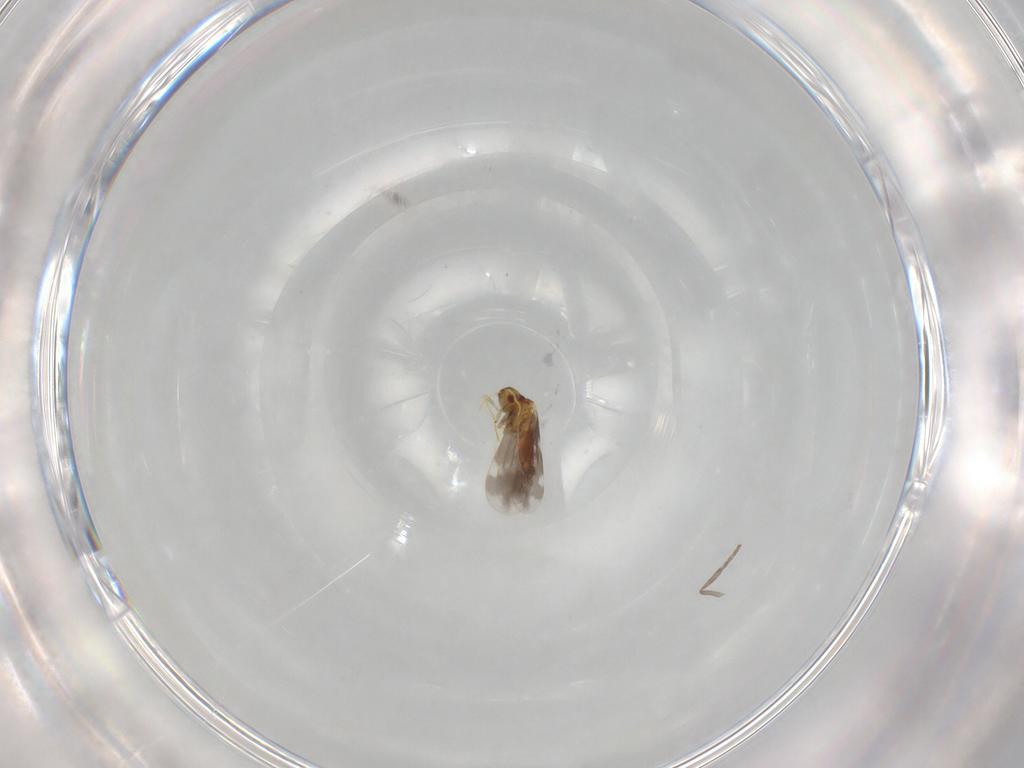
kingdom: Animalia
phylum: Arthropoda
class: Insecta
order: Hemiptera
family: Aleyrodidae
